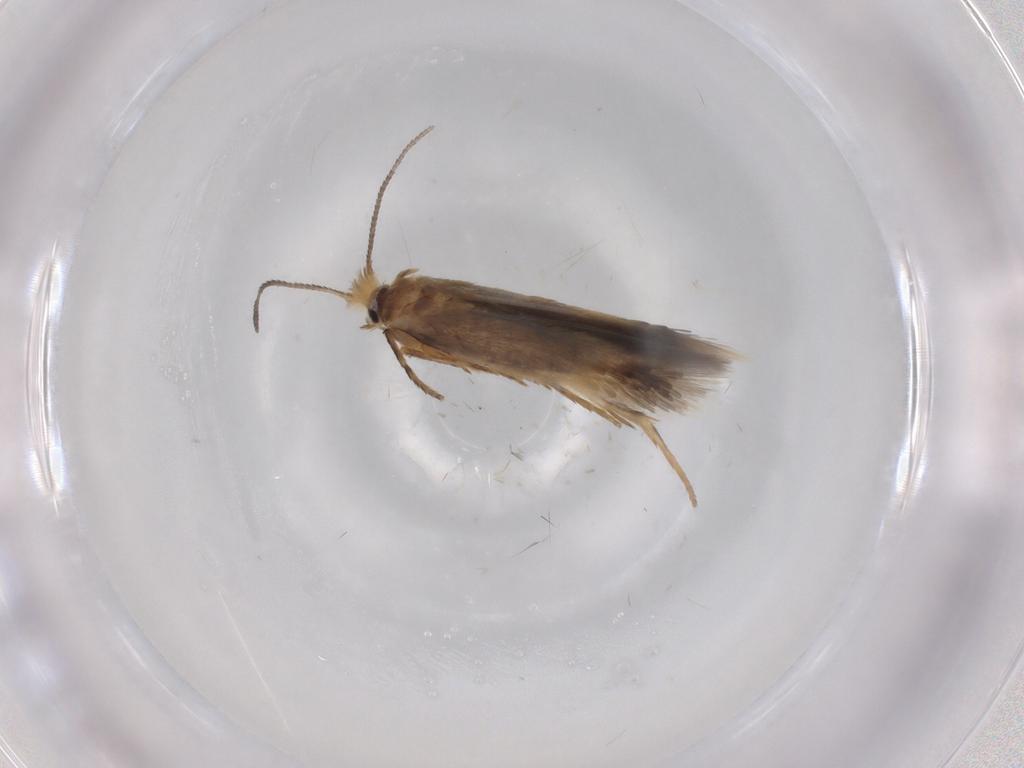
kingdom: Animalia
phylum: Arthropoda
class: Insecta
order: Lepidoptera
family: Nepticulidae
